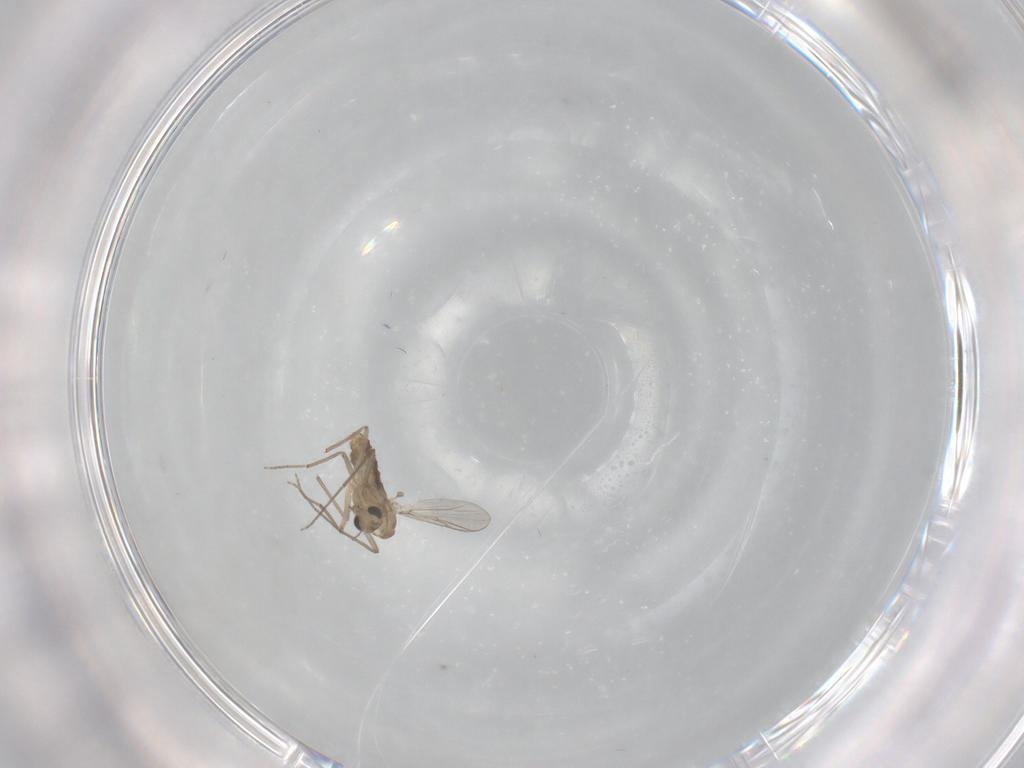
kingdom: Animalia
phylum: Arthropoda
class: Insecta
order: Diptera
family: Chironomidae
